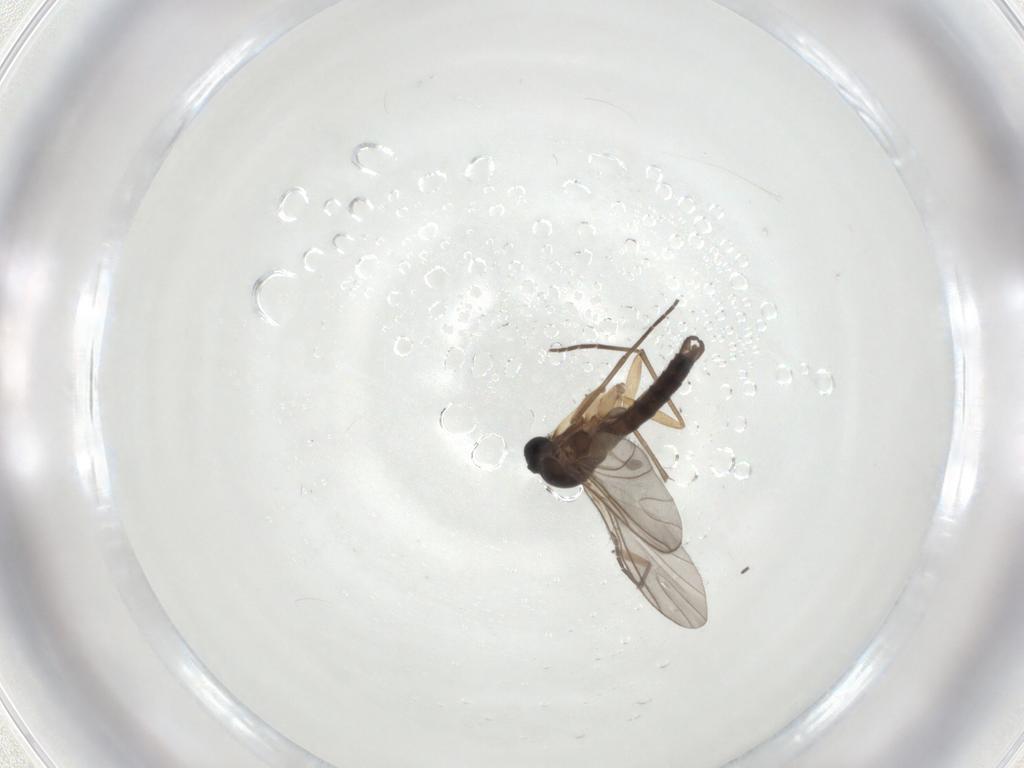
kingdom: Animalia
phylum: Arthropoda
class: Insecta
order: Diptera
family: Sciaridae
